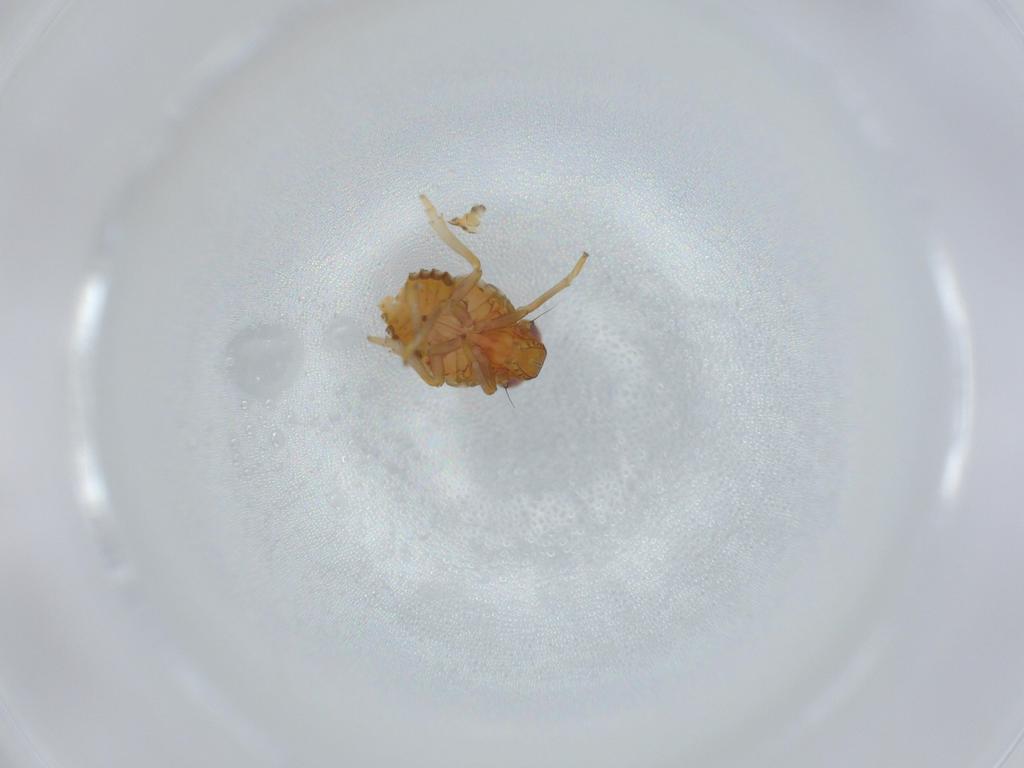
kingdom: Animalia
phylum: Arthropoda
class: Insecta
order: Hemiptera
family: Issidae
